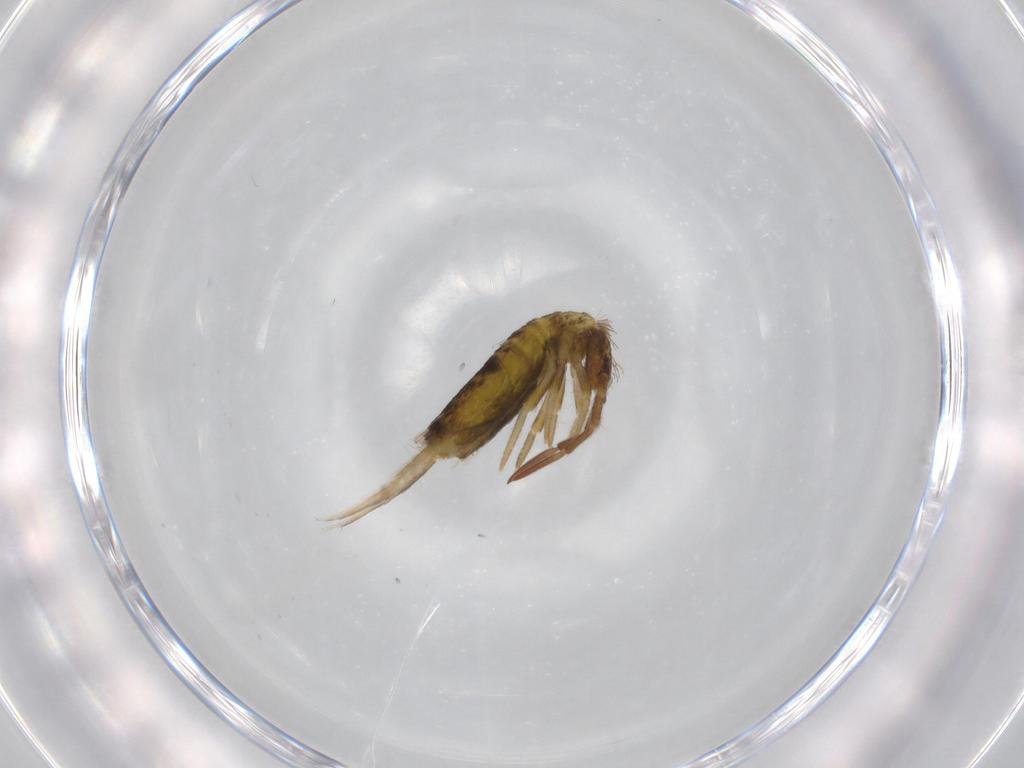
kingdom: Animalia
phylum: Arthropoda
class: Collembola
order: Entomobryomorpha
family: Entomobryidae
